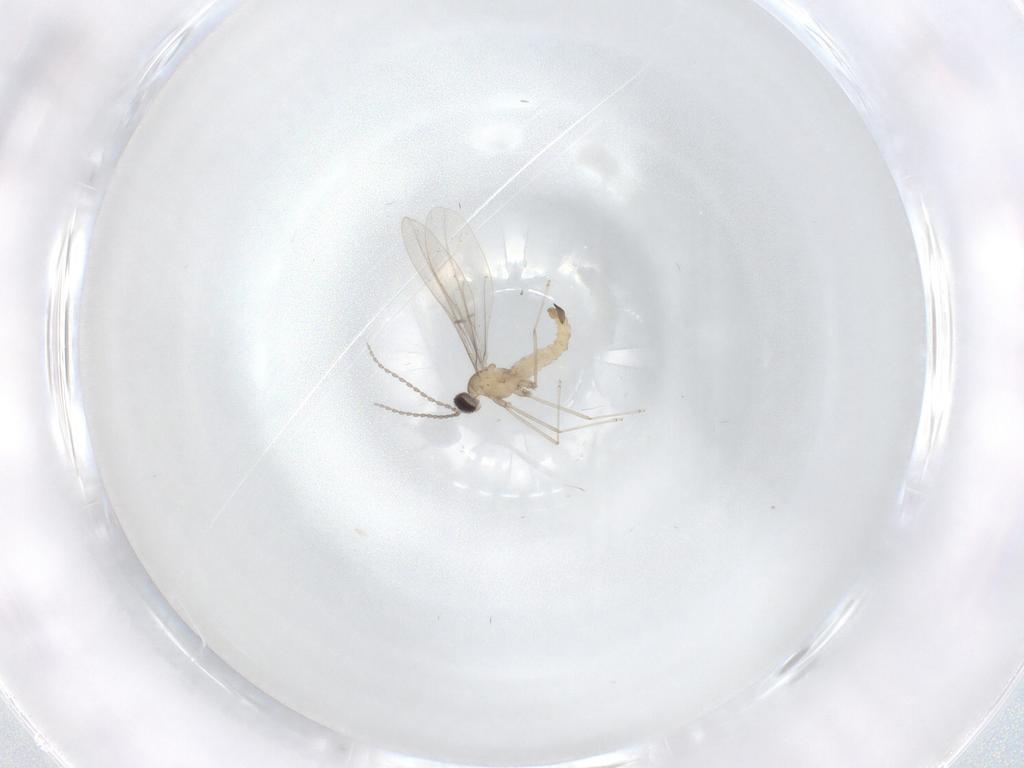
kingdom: Animalia
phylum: Arthropoda
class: Insecta
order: Diptera
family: Cecidomyiidae
